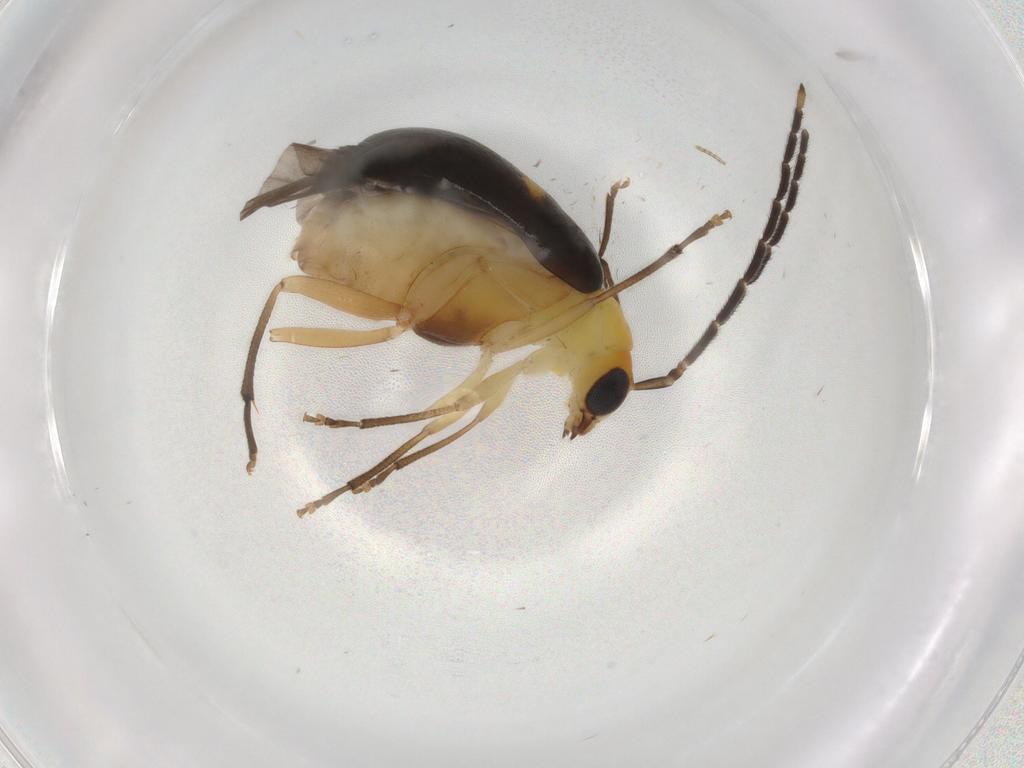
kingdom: Animalia
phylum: Arthropoda
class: Insecta
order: Coleoptera
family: Chrysomelidae
